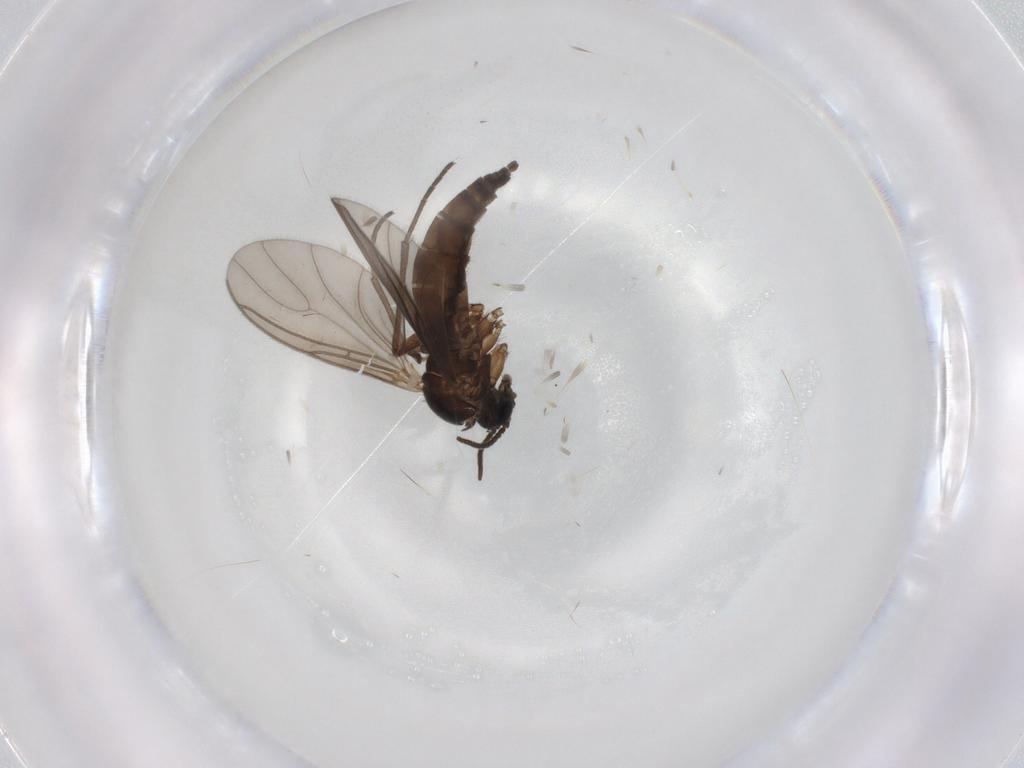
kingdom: Animalia
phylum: Arthropoda
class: Insecta
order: Diptera
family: Sciaridae
